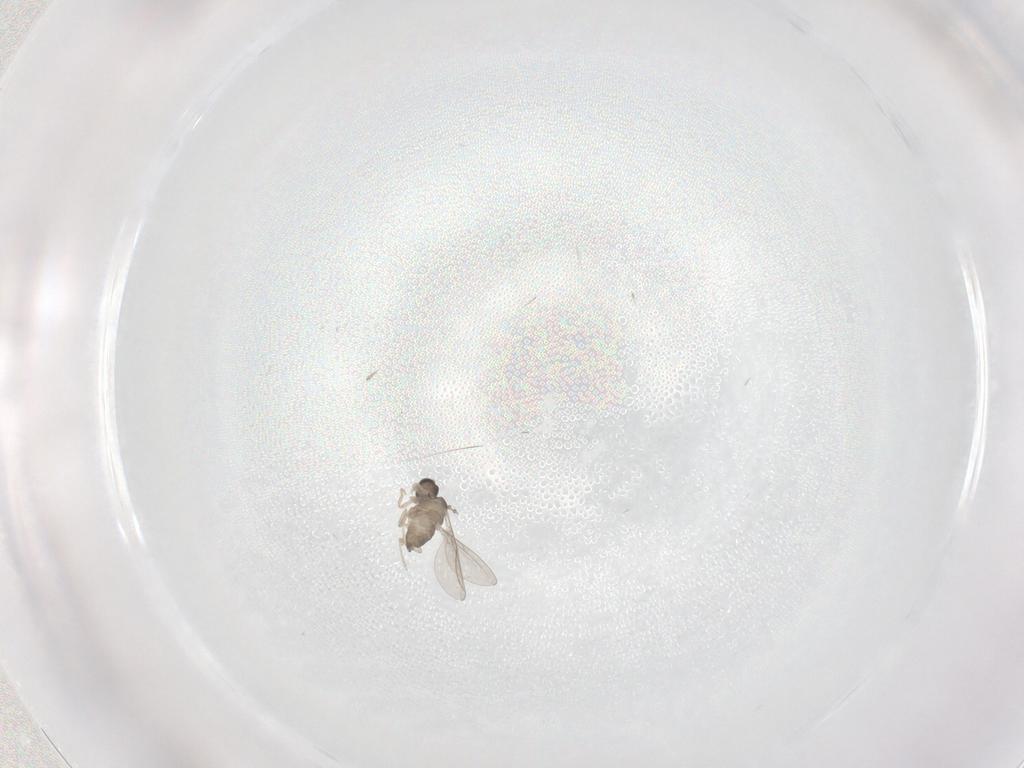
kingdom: Animalia
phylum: Arthropoda
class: Insecta
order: Diptera
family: Cecidomyiidae
